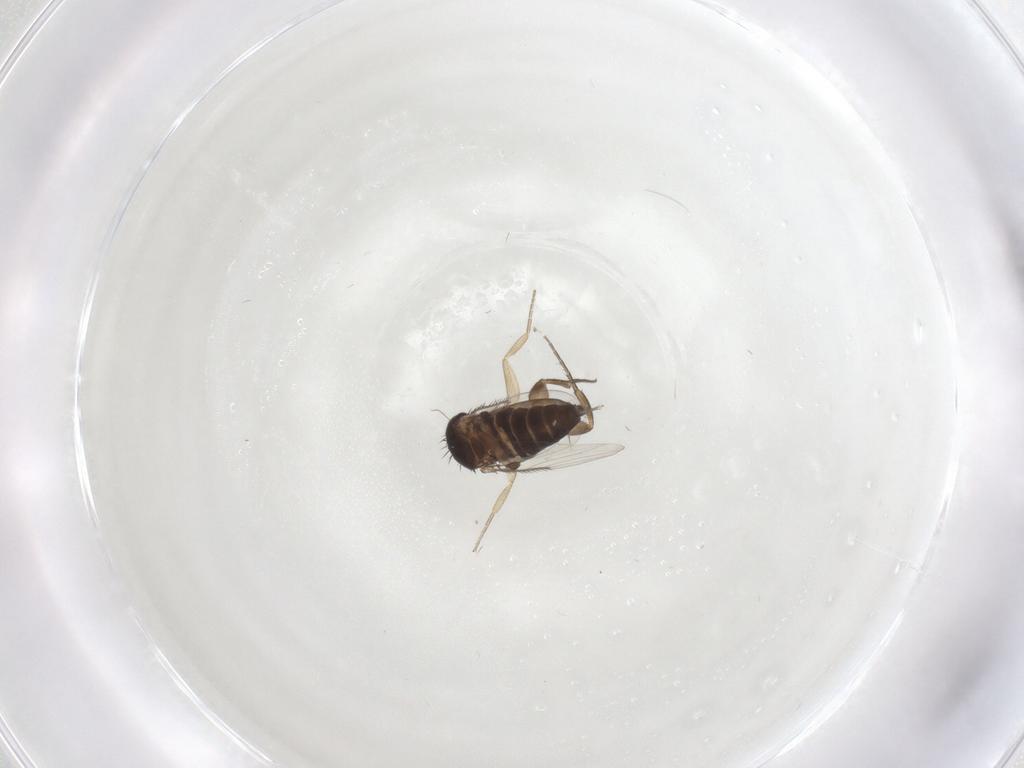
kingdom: Animalia
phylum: Arthropoda
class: Insecta
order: Diptera
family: Phoridae
